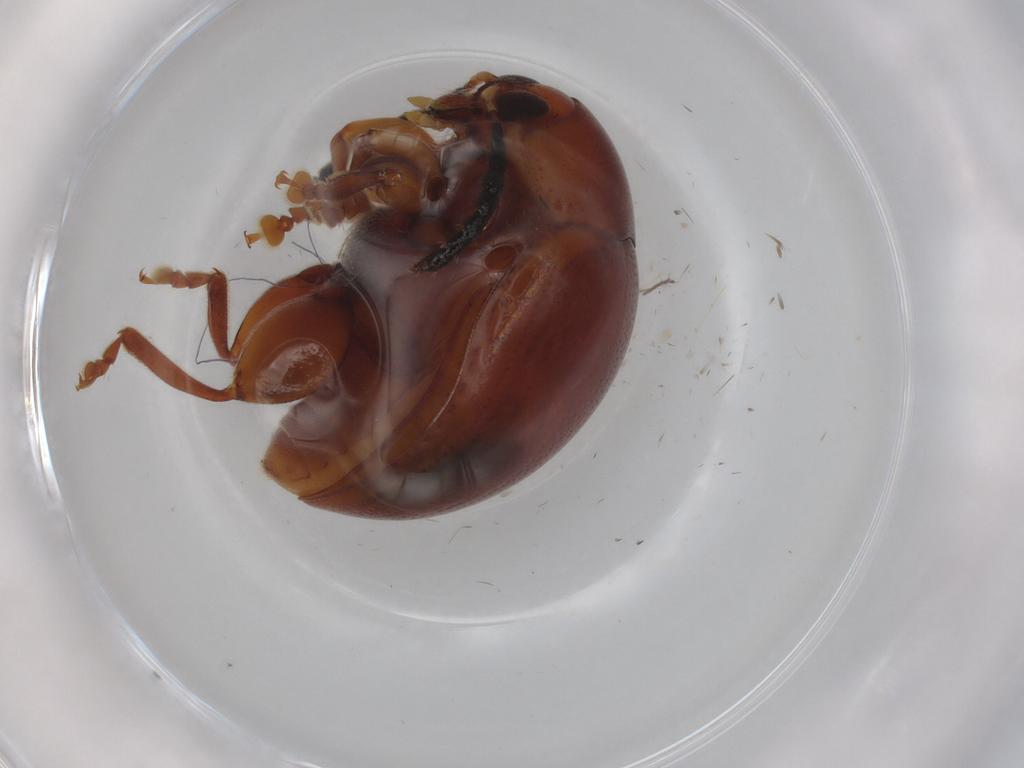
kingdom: Animalia
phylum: Arthropoda
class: Insecta
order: Coleoptera
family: Chrysomelidae
